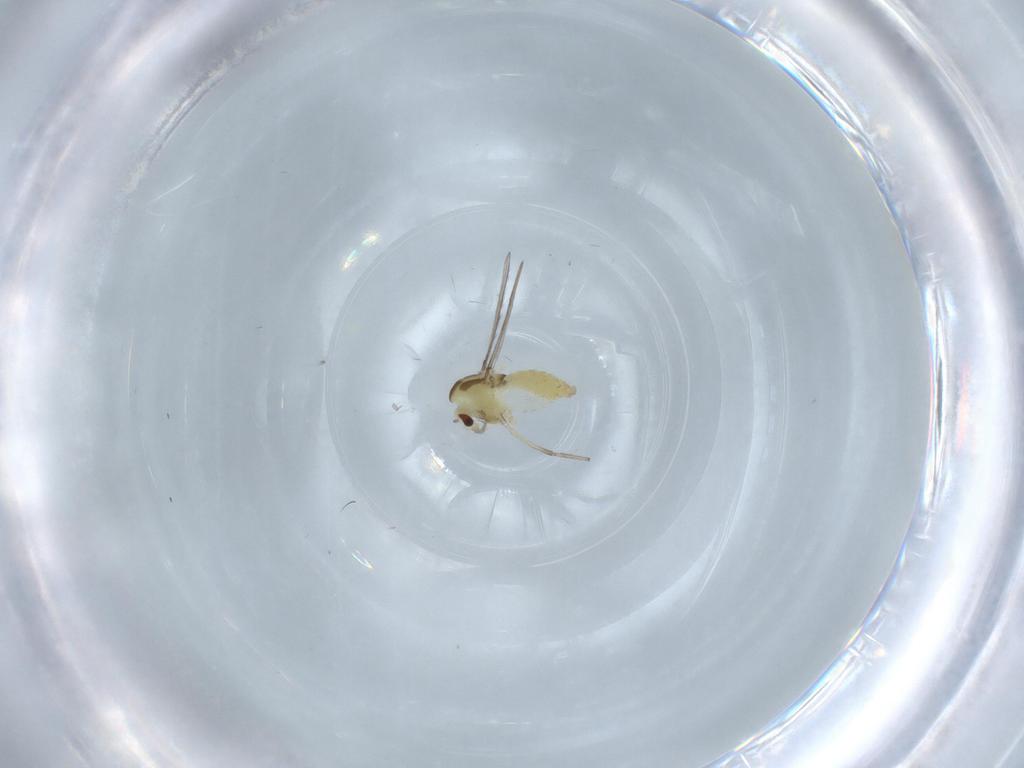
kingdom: Animalia
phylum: Arthropoda
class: Insecta
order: Diptera
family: Chironomidae
